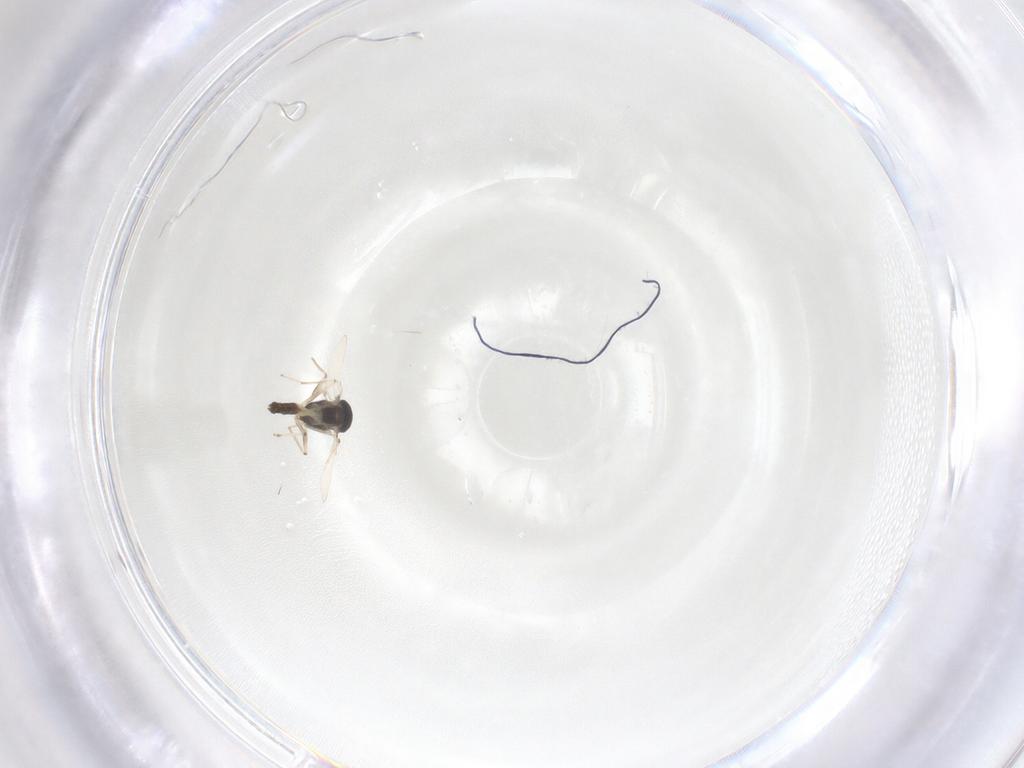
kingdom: Animalia
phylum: Arthropoda
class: Insecta
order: Diptera
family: Chironomidae
